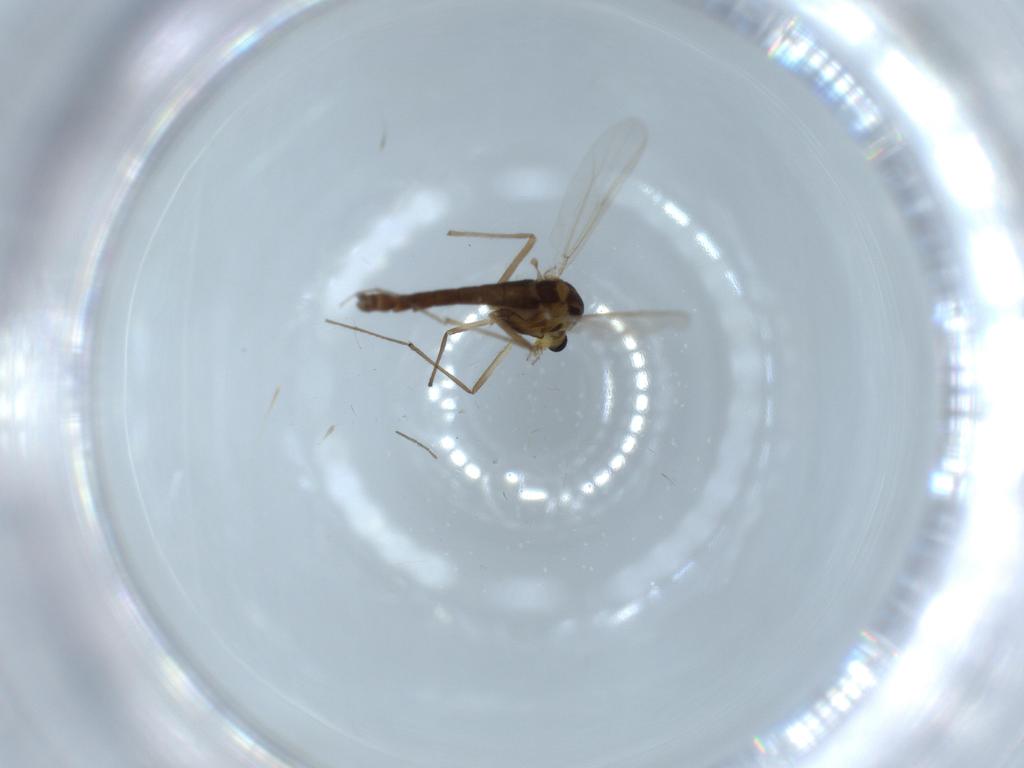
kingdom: Animalia
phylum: Arthropoda
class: Insecta
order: Diptera
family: Chironomidae
